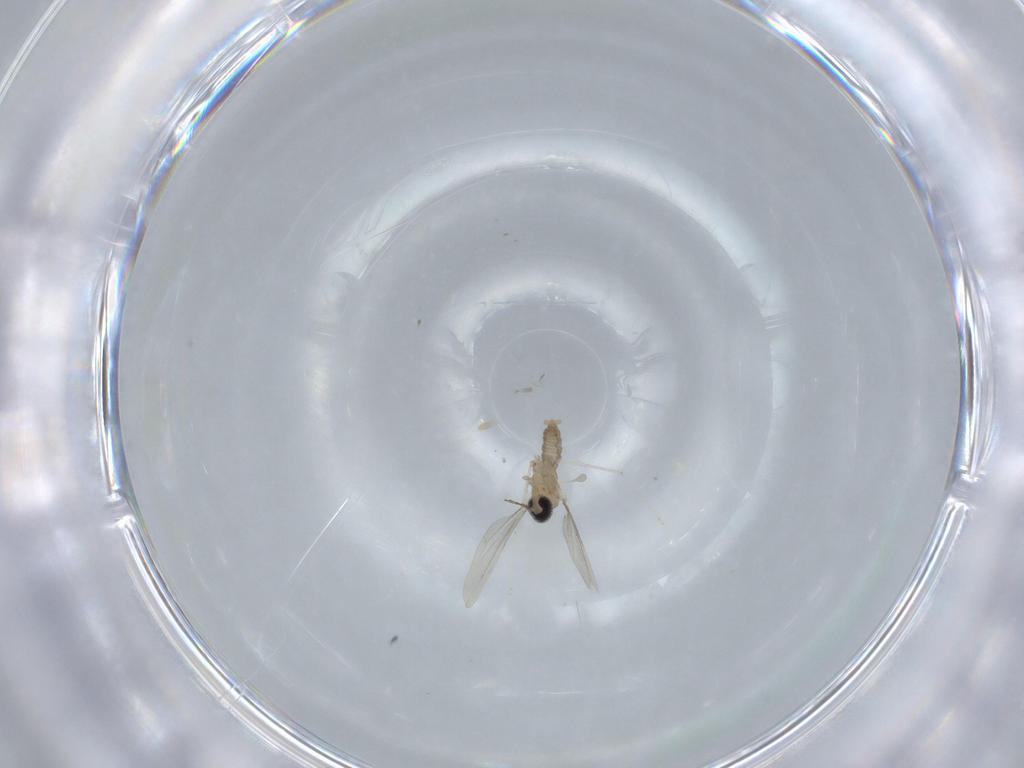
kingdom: Animalia
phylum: Arthropoda
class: Insecta
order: Diptera
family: Cecidomyiidae
